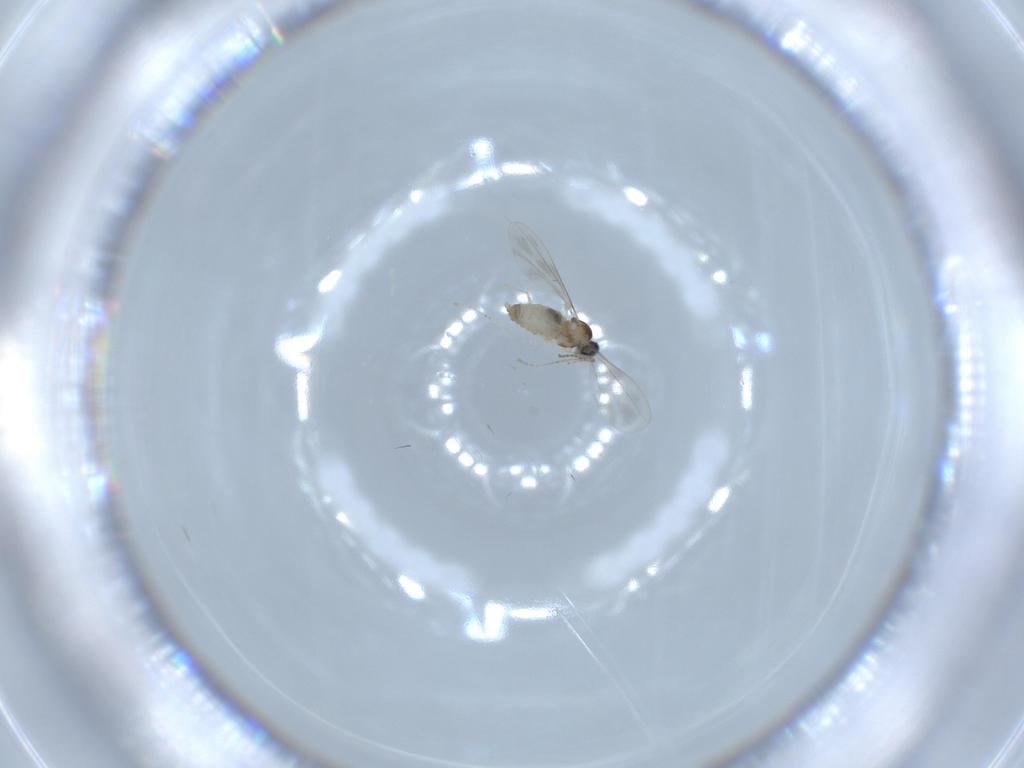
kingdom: Animalia
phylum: Arthropoda
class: Insecta
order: Diptera
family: Cecidomyiidae
